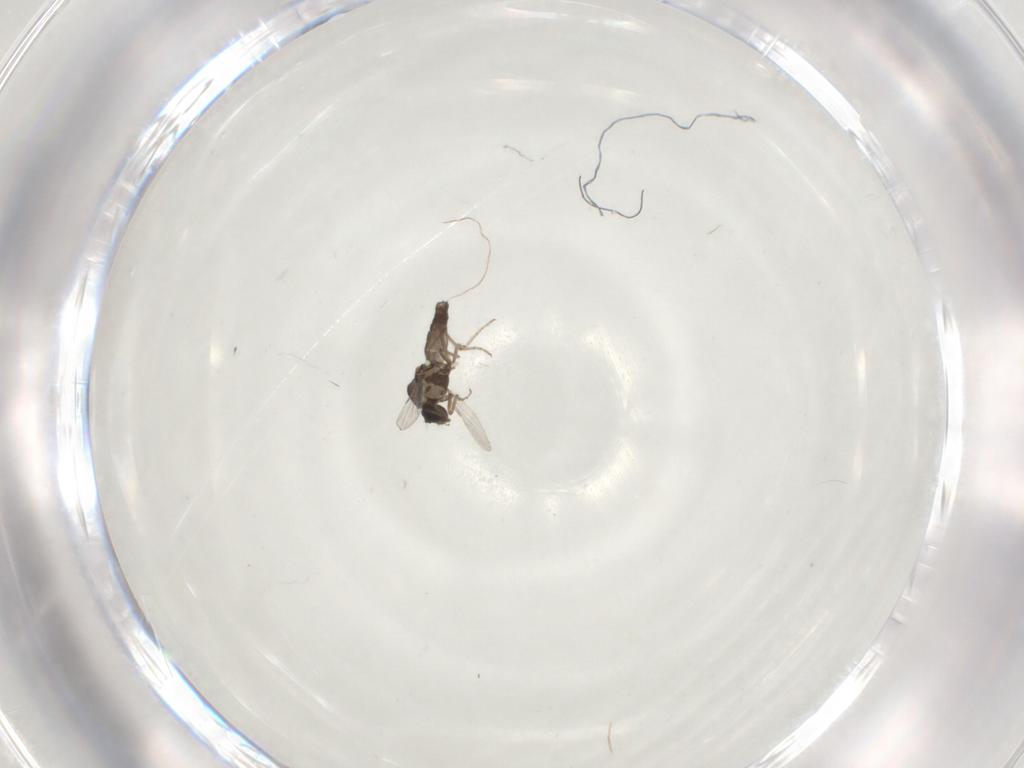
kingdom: Animalia
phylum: Arthropoda
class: Insecta
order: Diptera
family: Ceratopogonidae
